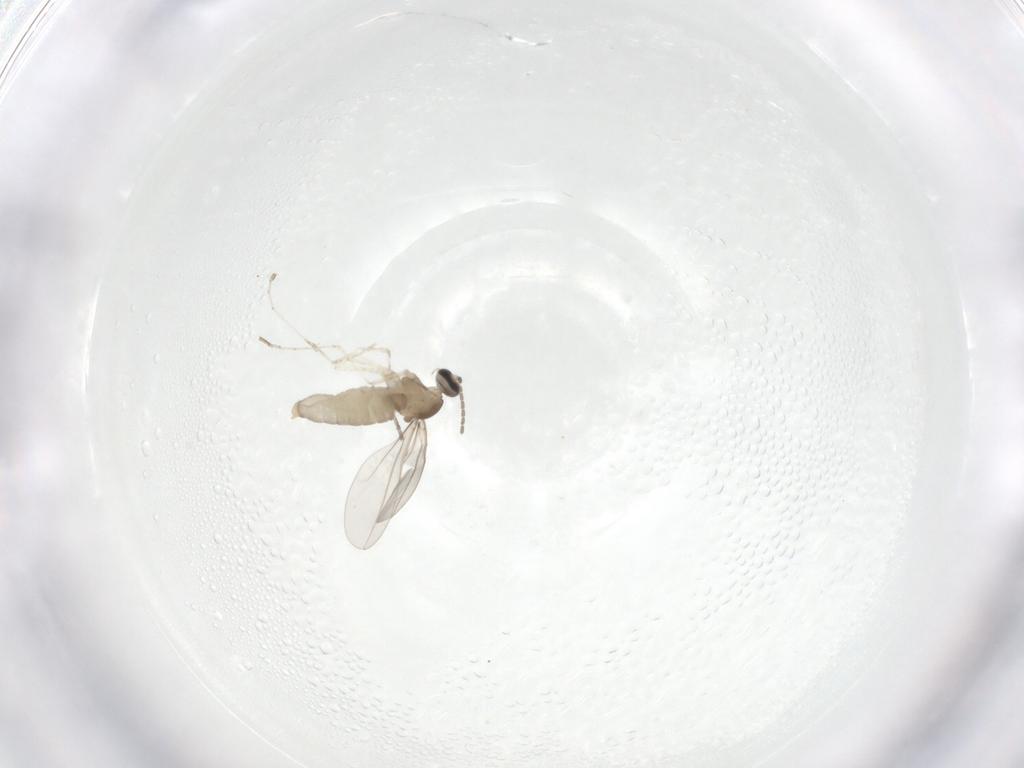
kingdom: Animalia
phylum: Arthropoda
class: Insecta
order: Diptera
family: Cecidomyiidae
